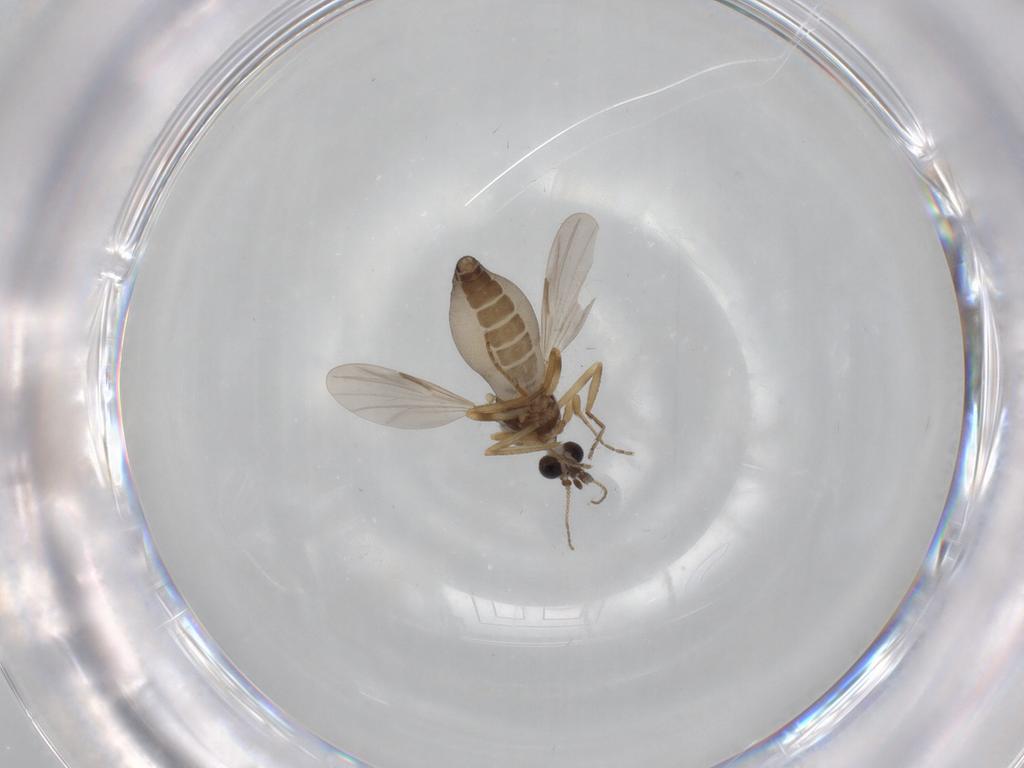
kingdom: Animalia
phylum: Arthropoda
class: Insecta
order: Diptera
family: Ceratopogonidae
